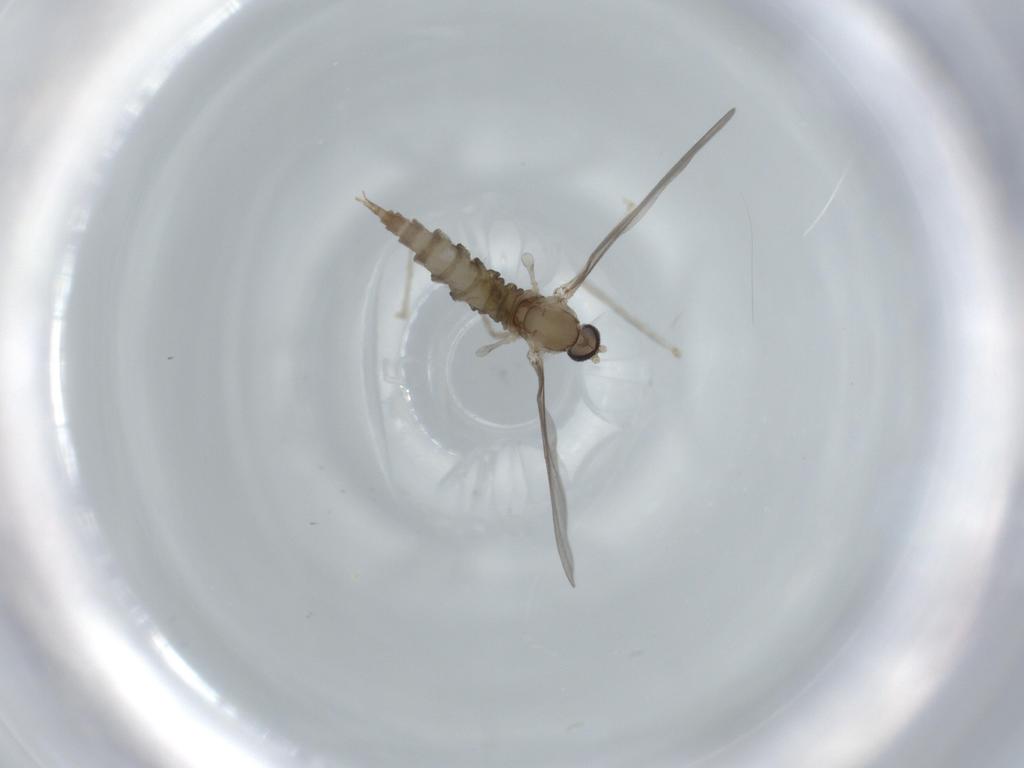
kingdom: Animalia
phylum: Arthropoda
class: Insecta
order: Diptera
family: Cecidomyiidae
